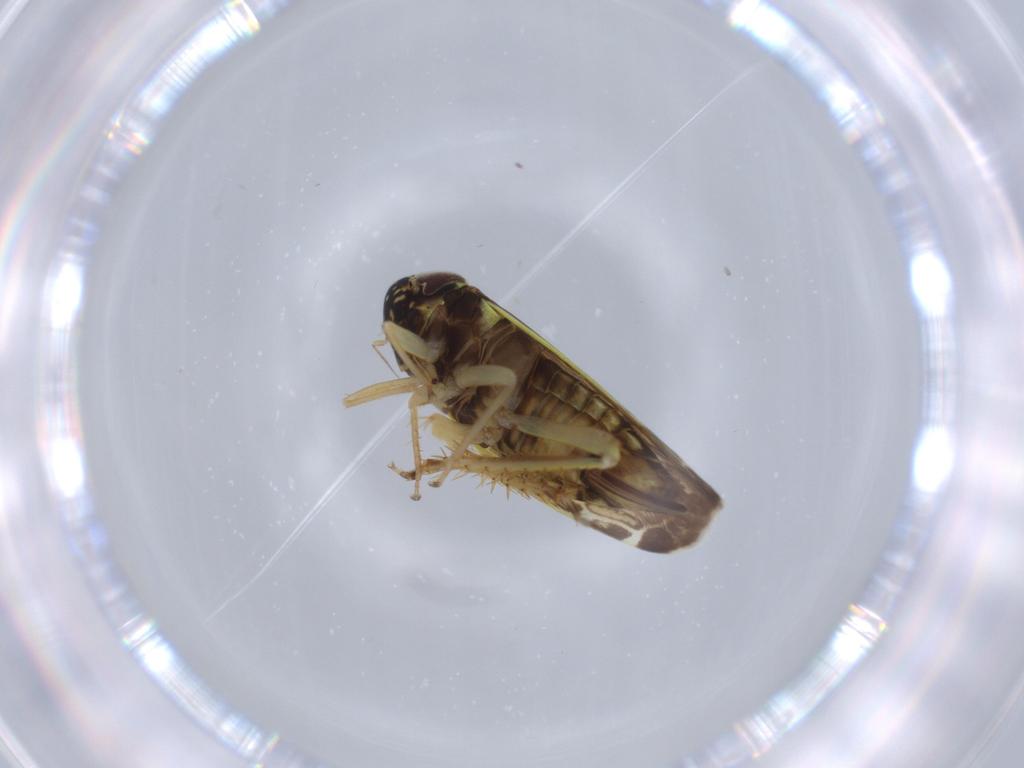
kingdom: Animalia
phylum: Arthropoda
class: Insecta
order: Hemiptera
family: Cicadellidae
